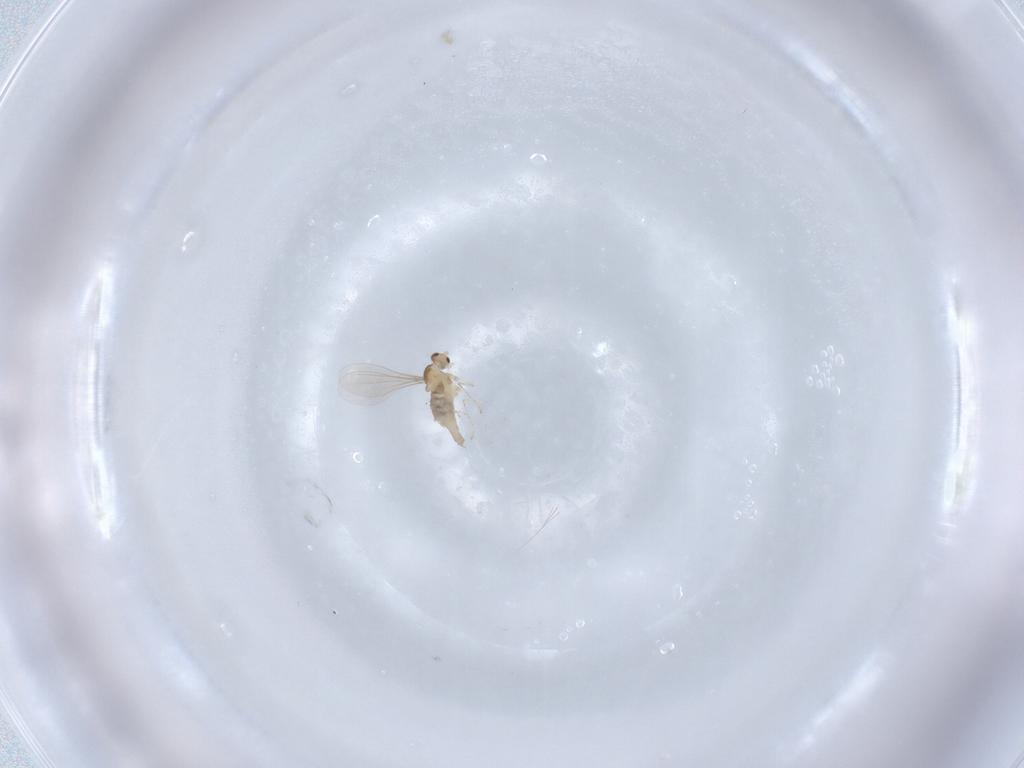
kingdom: Animalia
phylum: Arthropoda
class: Insecta
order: Diptera
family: Cecidomyiidae
